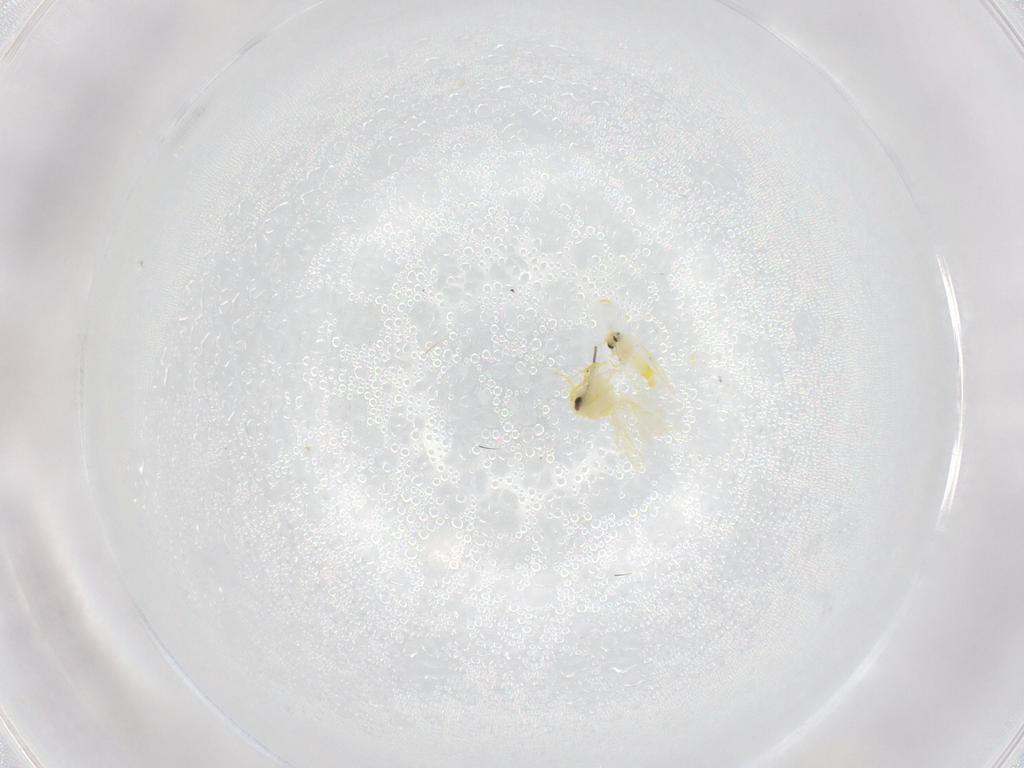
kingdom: Animalia
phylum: Arthropoda
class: Insecta
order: Hemiptera
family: Aleyrodidae
